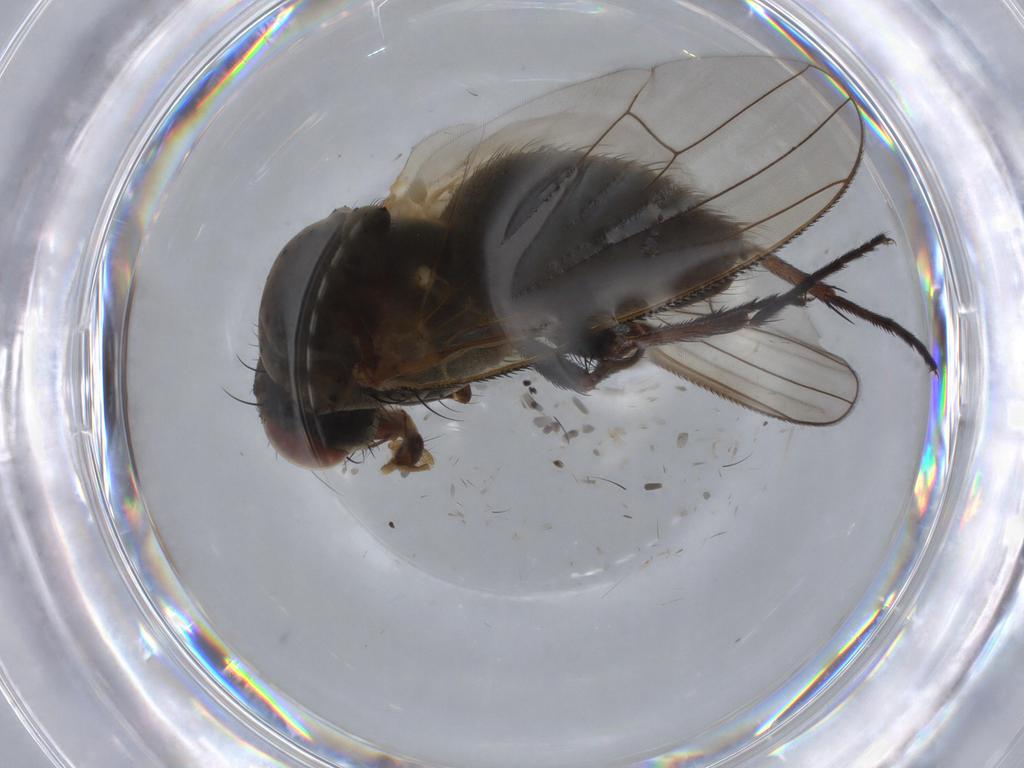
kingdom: Animalia
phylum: Arthropoda
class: Insecta
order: Diptera
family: Anthomyiidae
